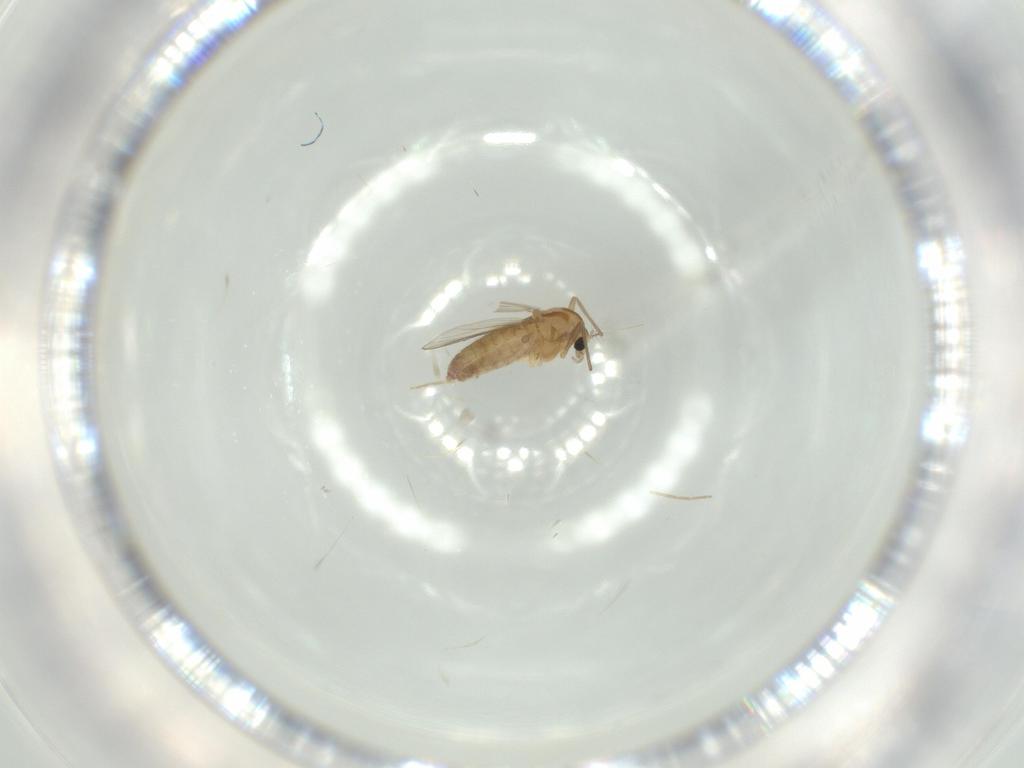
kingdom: Animalia
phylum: Arthropoda
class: Insecta
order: Diptera
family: Chironomidae
